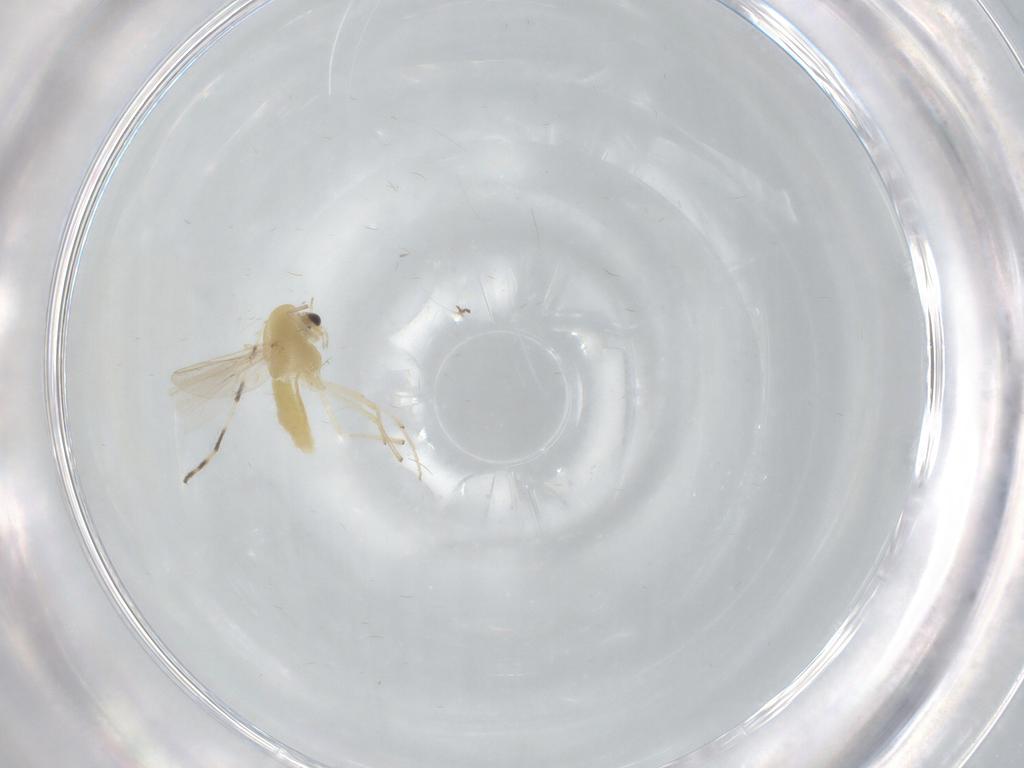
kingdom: Animalia
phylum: Arthropoda
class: Insecta
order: Diptera
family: Chironomidae
